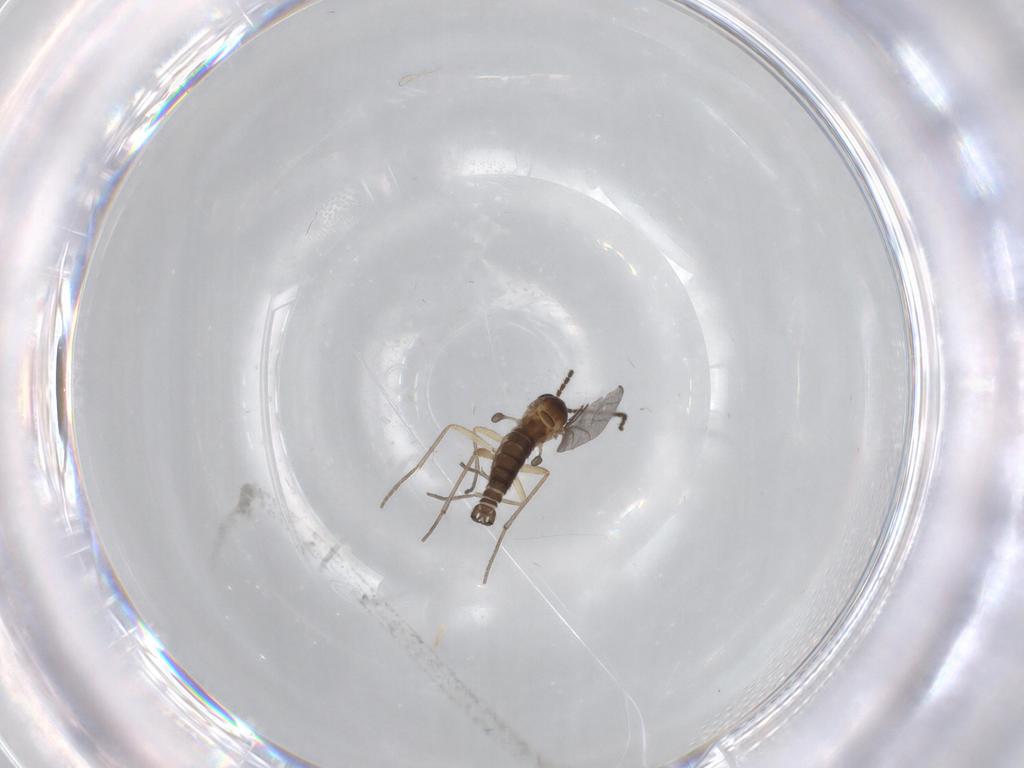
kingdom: Animalia
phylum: Arthropoda
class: Insecta
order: Diptera
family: Sciaridae
